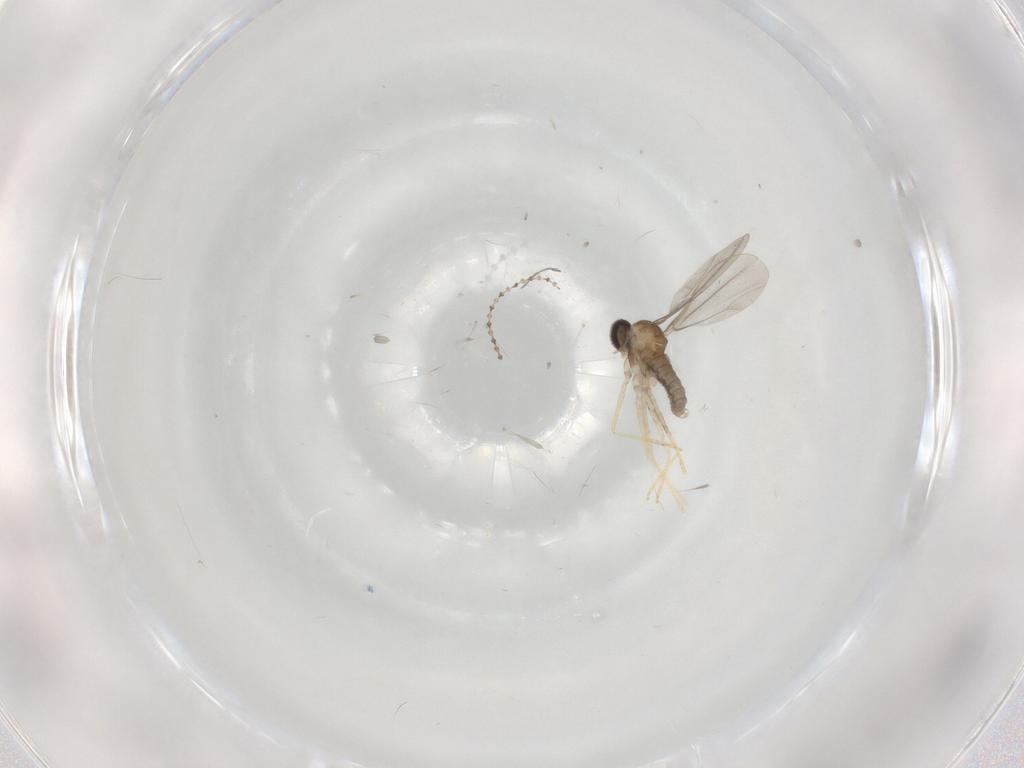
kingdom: Animalia
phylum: Arthropoda
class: Insecta
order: Diptera
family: Cecidomyiidae
